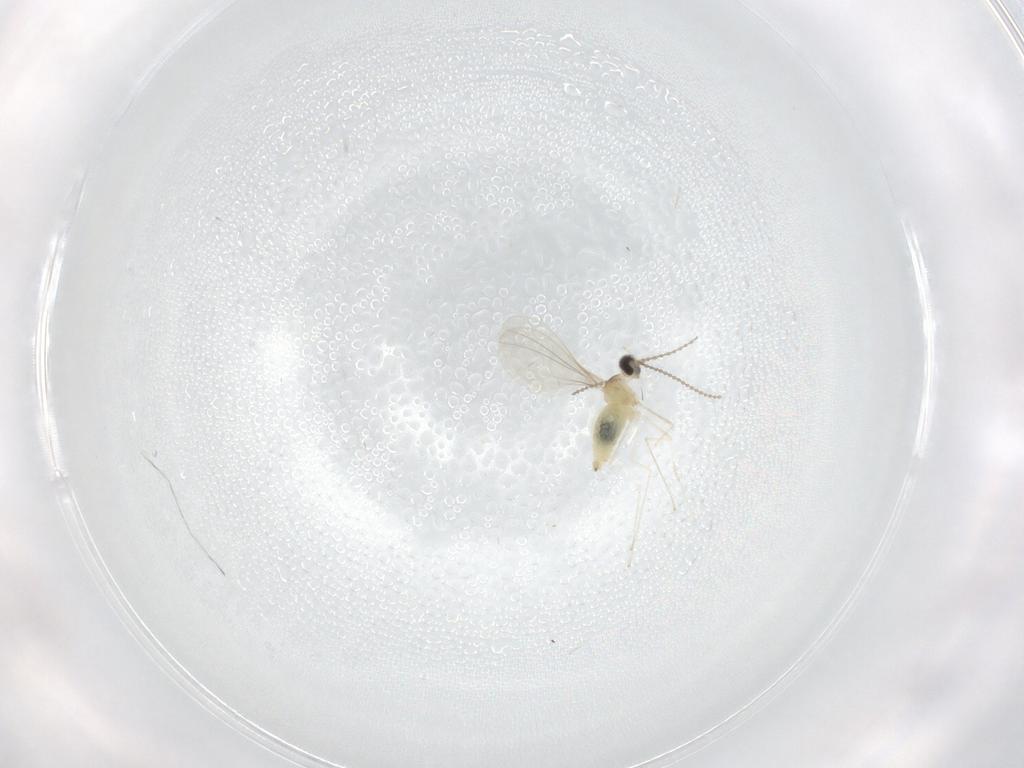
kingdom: Animalia
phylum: Arthropoda
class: Insecta
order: Diptera
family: Cecidomyiidae
